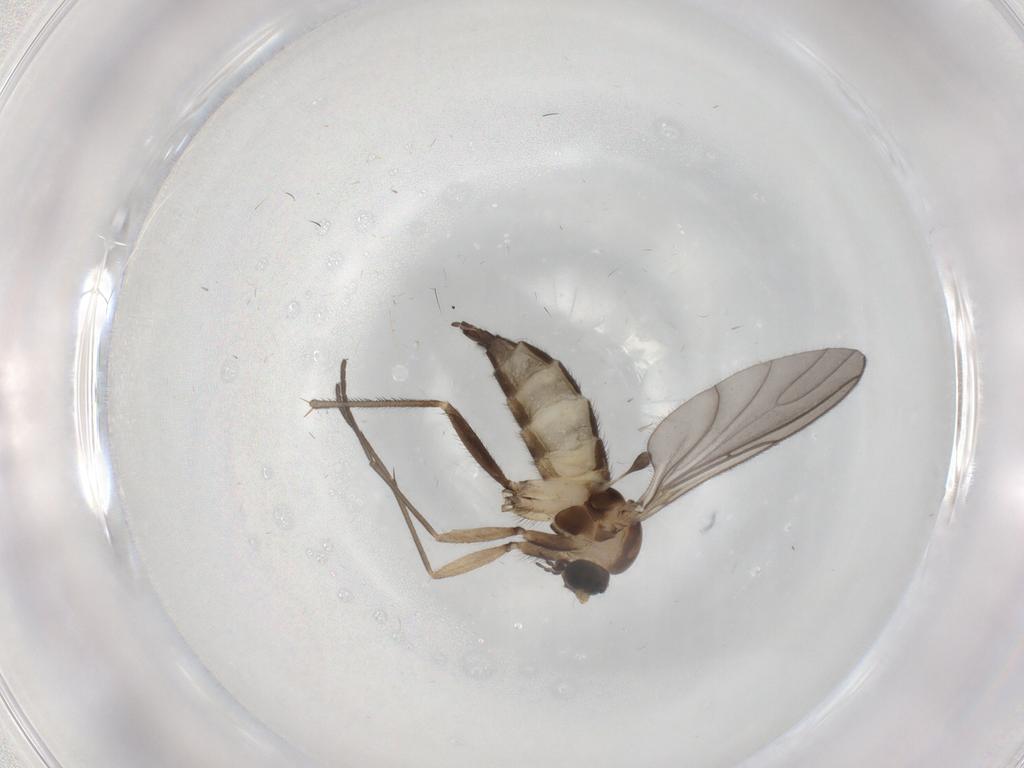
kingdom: Animalia
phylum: Arthropoda
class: Insecta
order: Diptera
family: Sciaridae
